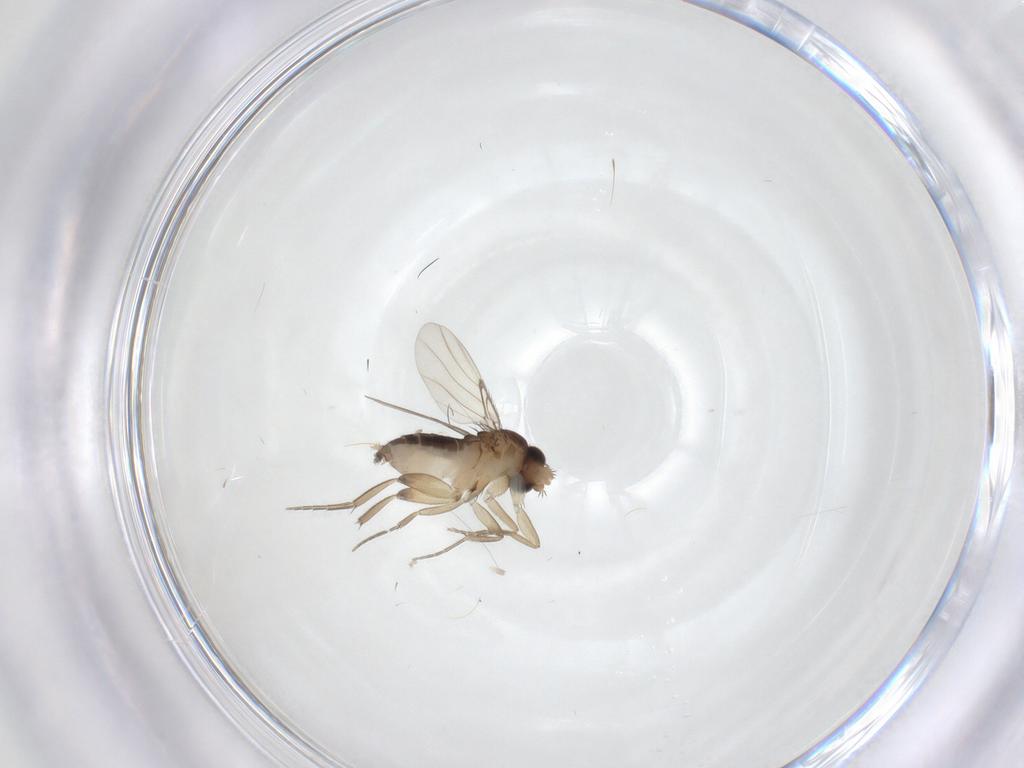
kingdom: Animalia
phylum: Arthropoda
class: Insecta
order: Diptera
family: Phoridae
